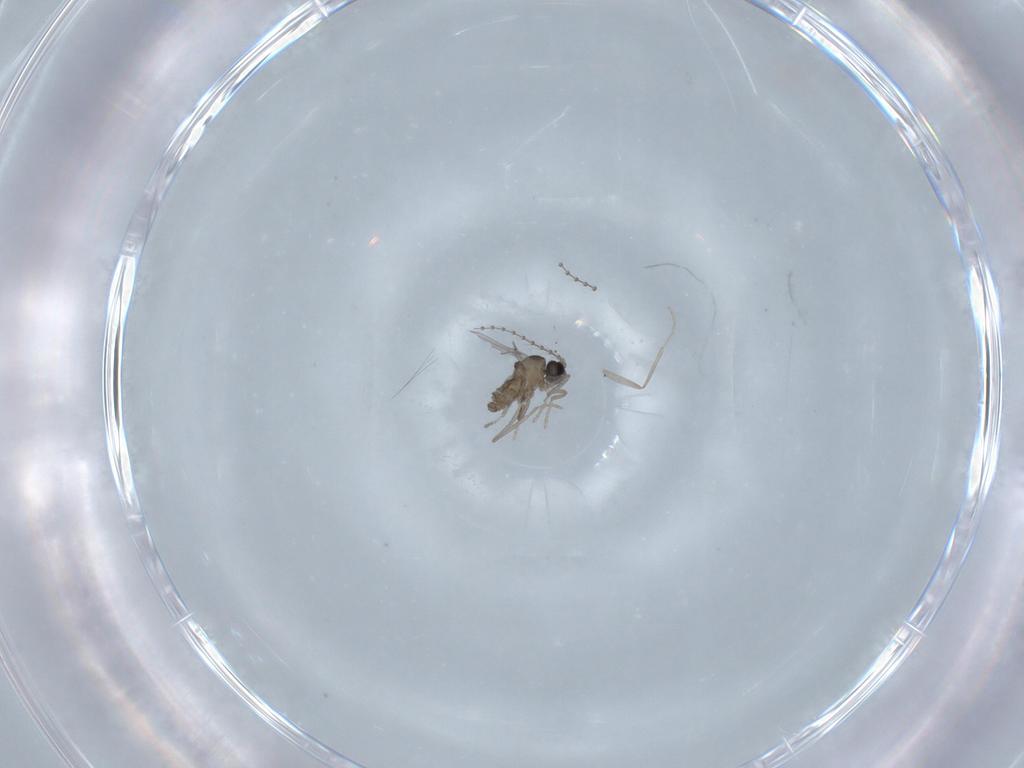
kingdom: Animalia
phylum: Arthropoda
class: Insecta
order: Diptera
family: Cecidomyiidae
